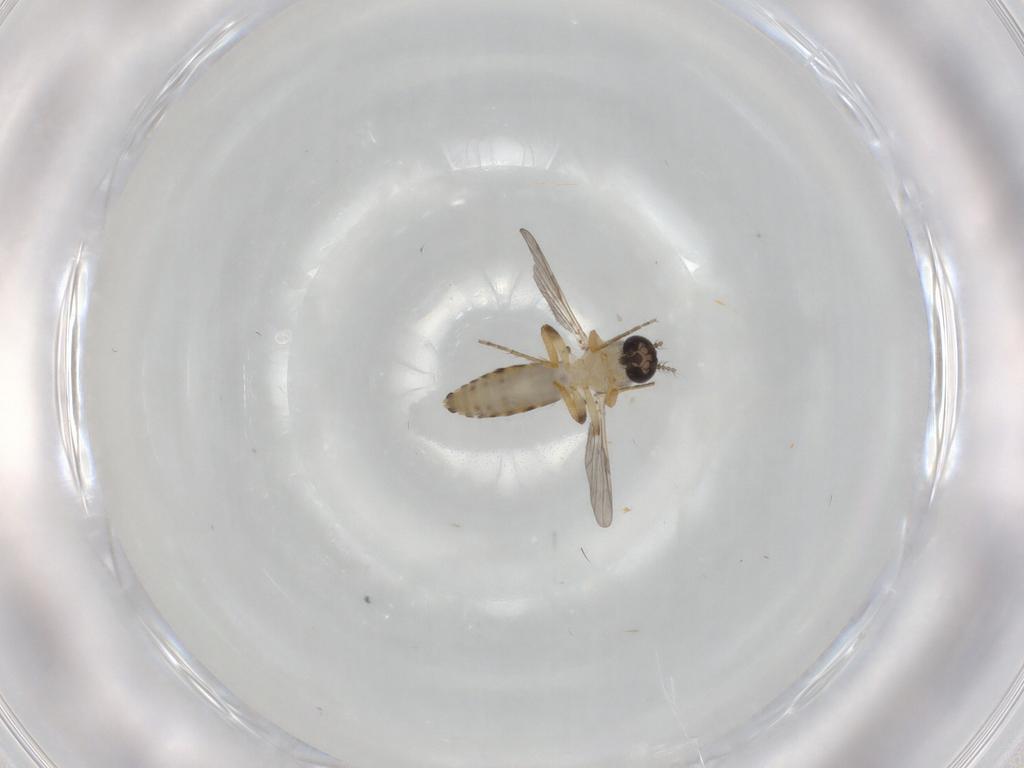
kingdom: Animalia
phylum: Arthropoda
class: Insecta
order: Diptera
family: Ceratopogonidae
